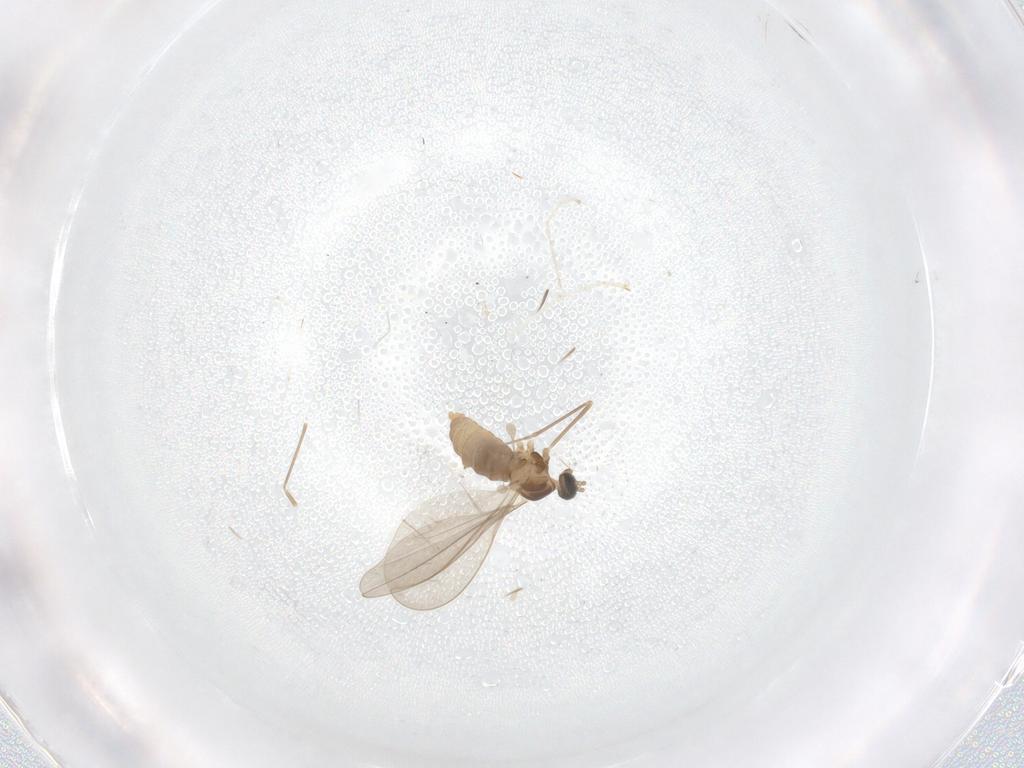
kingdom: Animalia
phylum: Arthropoda
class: Insecta
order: Diptera
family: Cecidomyiidae
